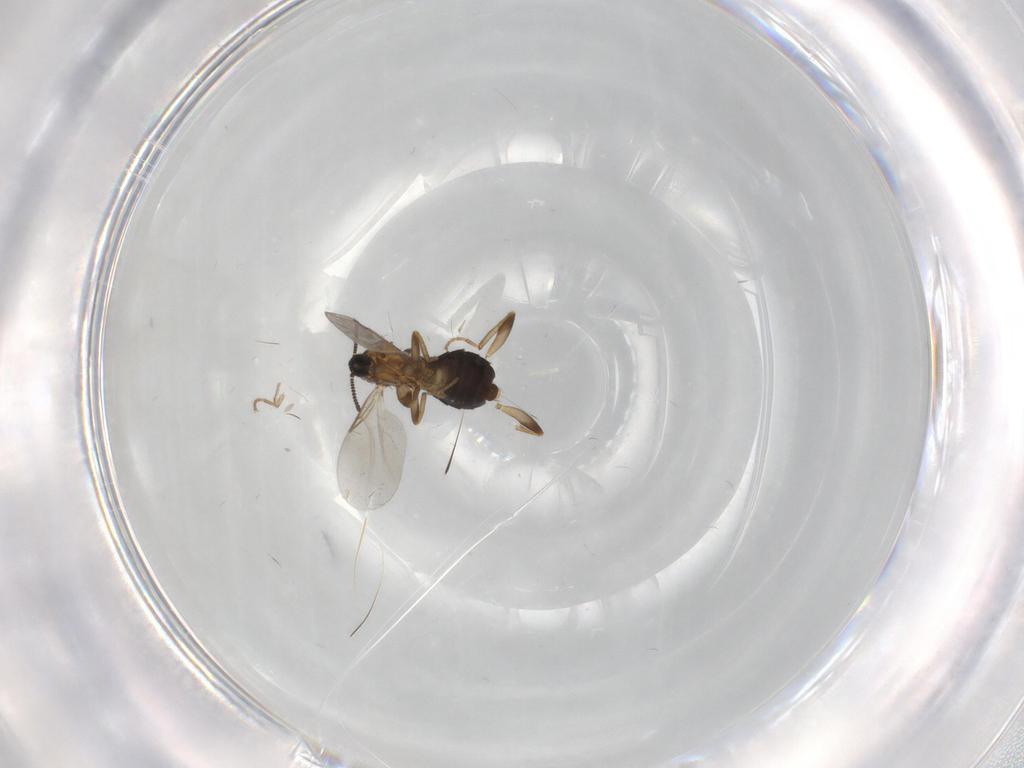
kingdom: Animalia
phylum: Arthropoda
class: Insecta
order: Diptera
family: Scatopsidae
